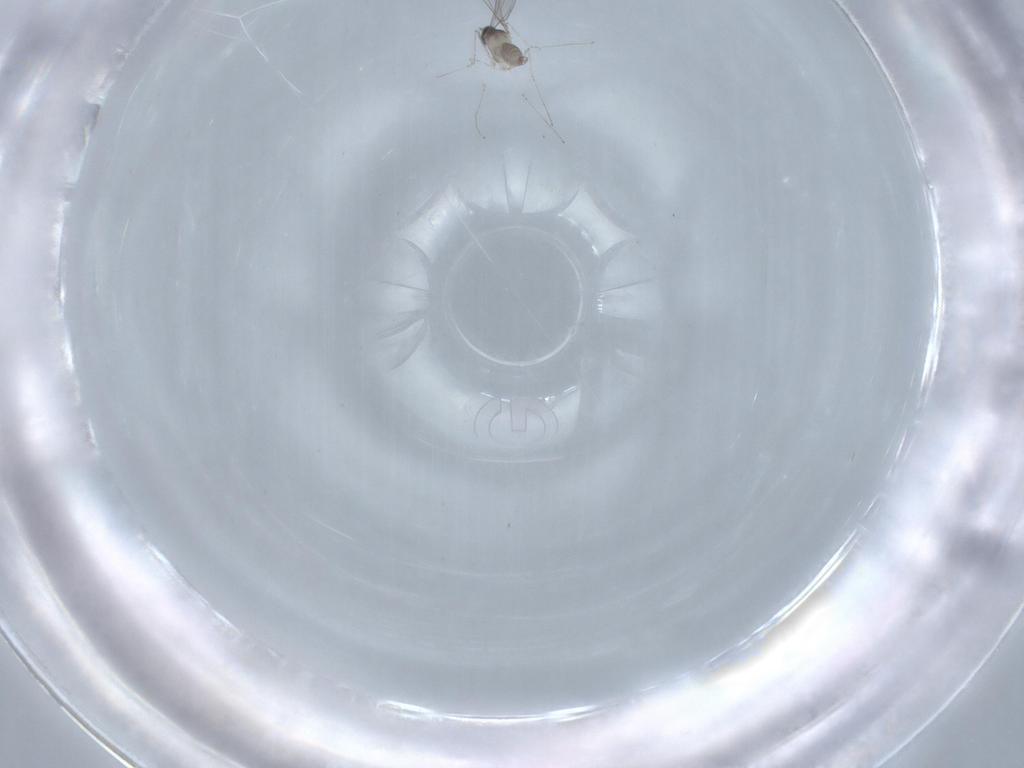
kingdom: Animalia
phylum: Arthropoda
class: Insecta
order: Diptera
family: Cecidomyiidae
